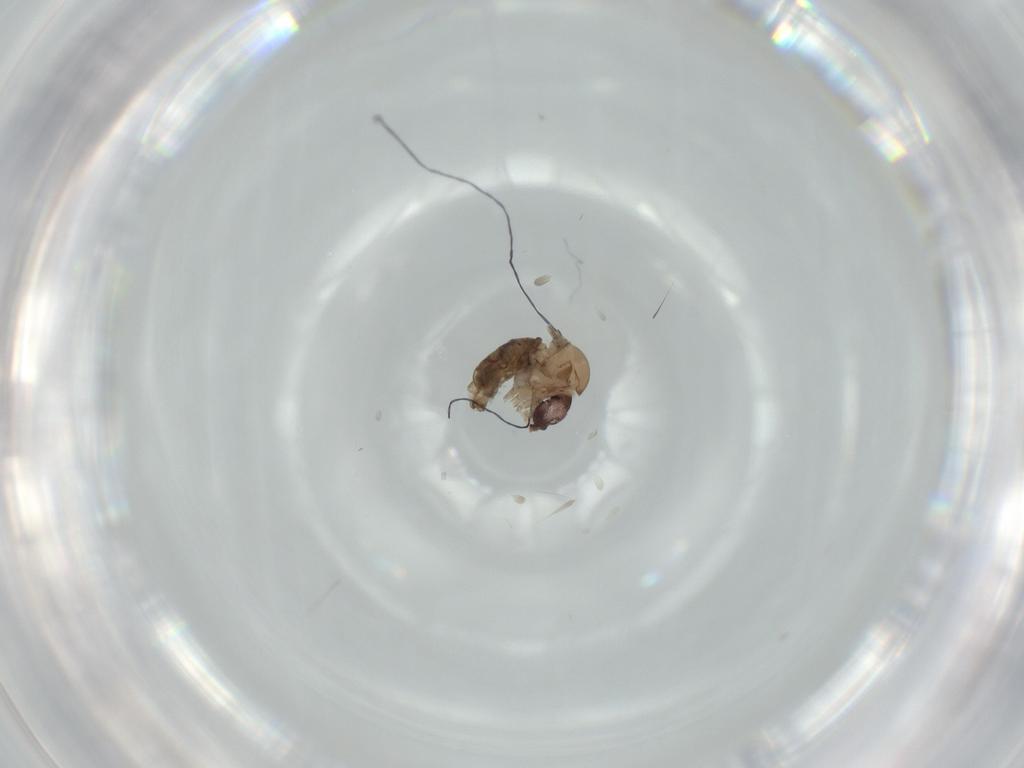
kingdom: Animalia
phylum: Arthropoda
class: Insecta
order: Diptera
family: Psychodidae
